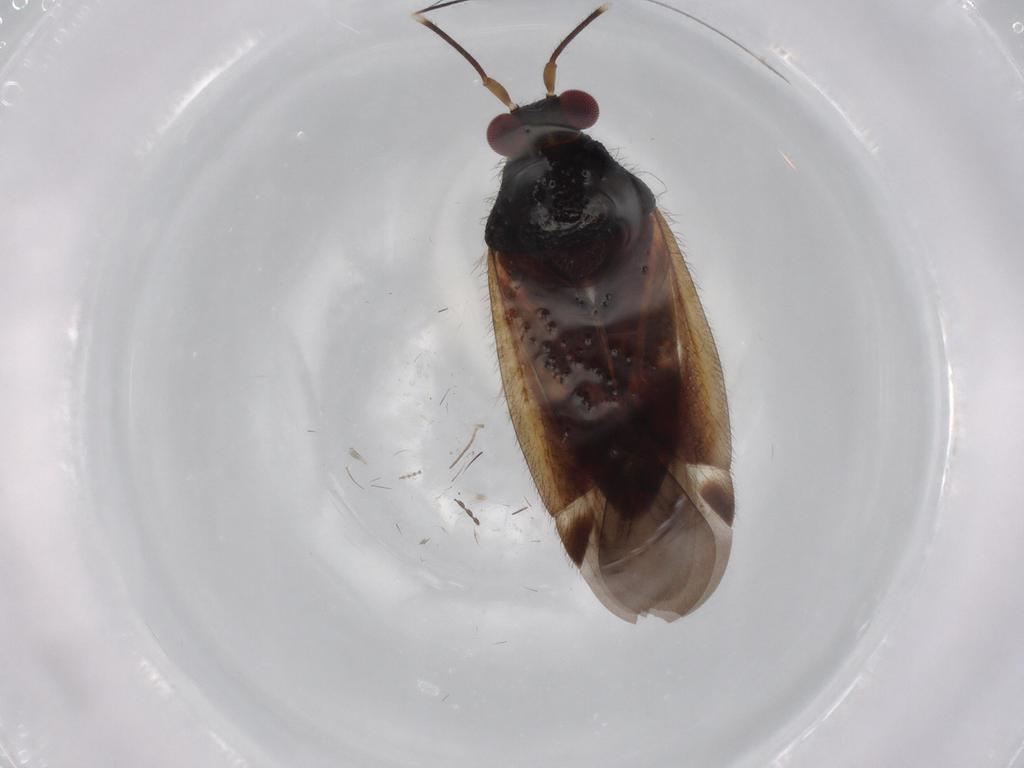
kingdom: Animalia
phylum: Arthropoda
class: Insecta
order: Hemiptera
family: Miridae
